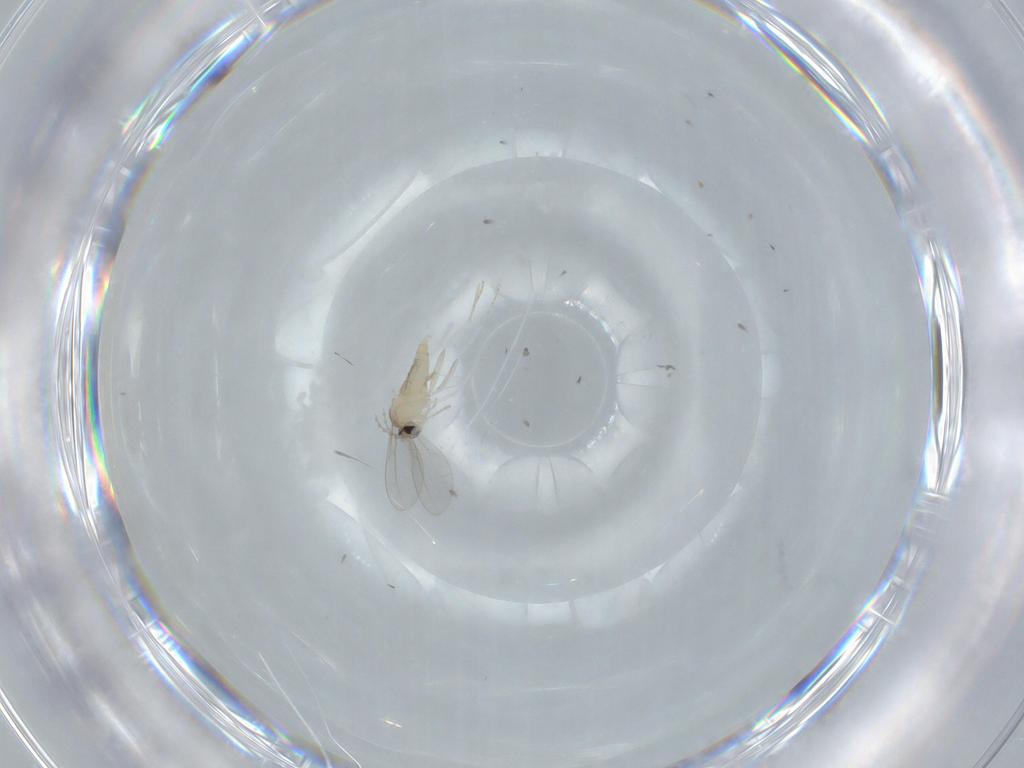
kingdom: Animalia
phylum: Arthropoda
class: Insecta
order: Diptera
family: Cecidomyiidae
